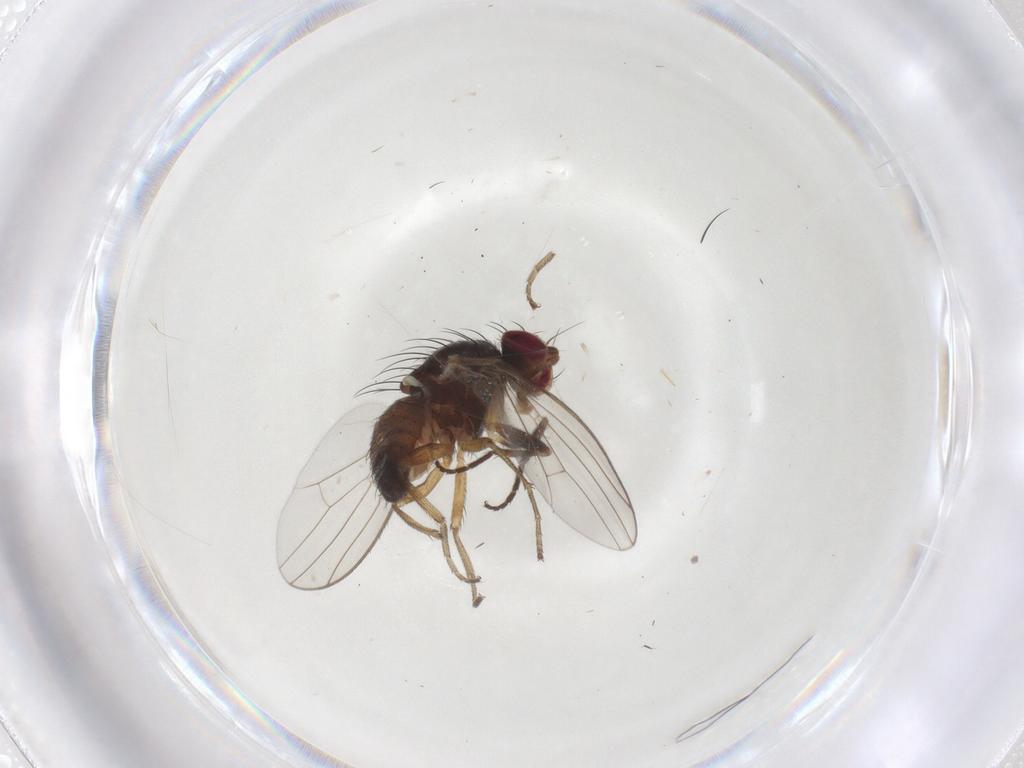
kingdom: Animalia
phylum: Arthropoda
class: Insecta
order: Diptera
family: Heleomyzidae
